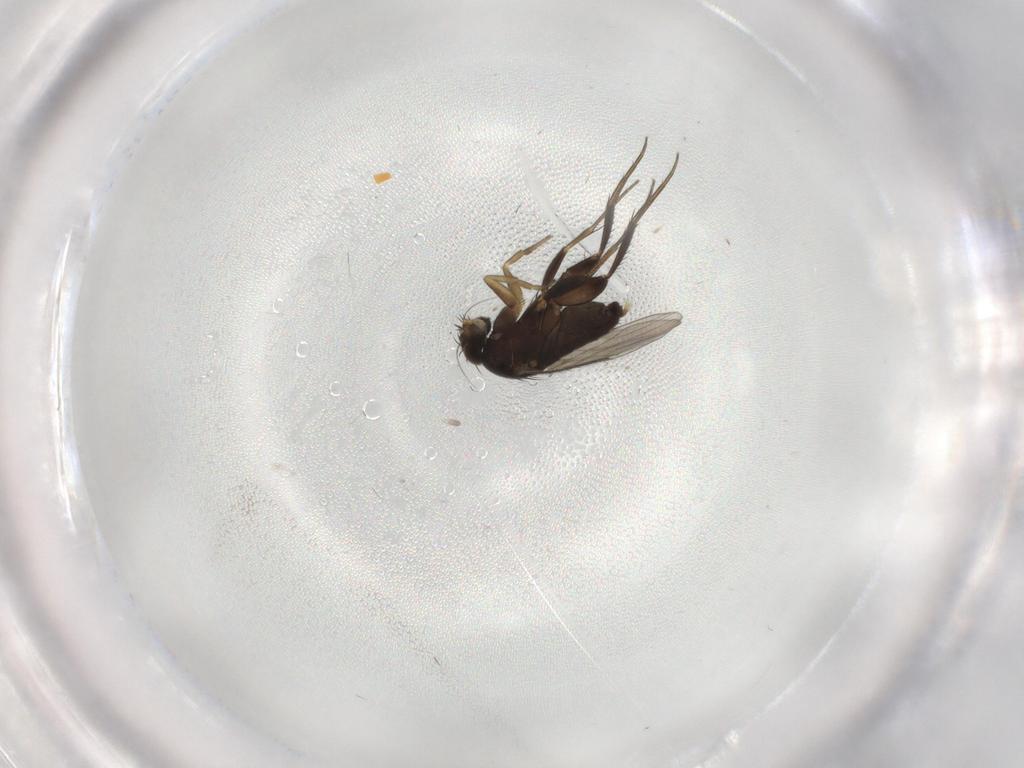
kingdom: Animalia
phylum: Arthropoda
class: Insecta
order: Diptera
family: Phoridae
